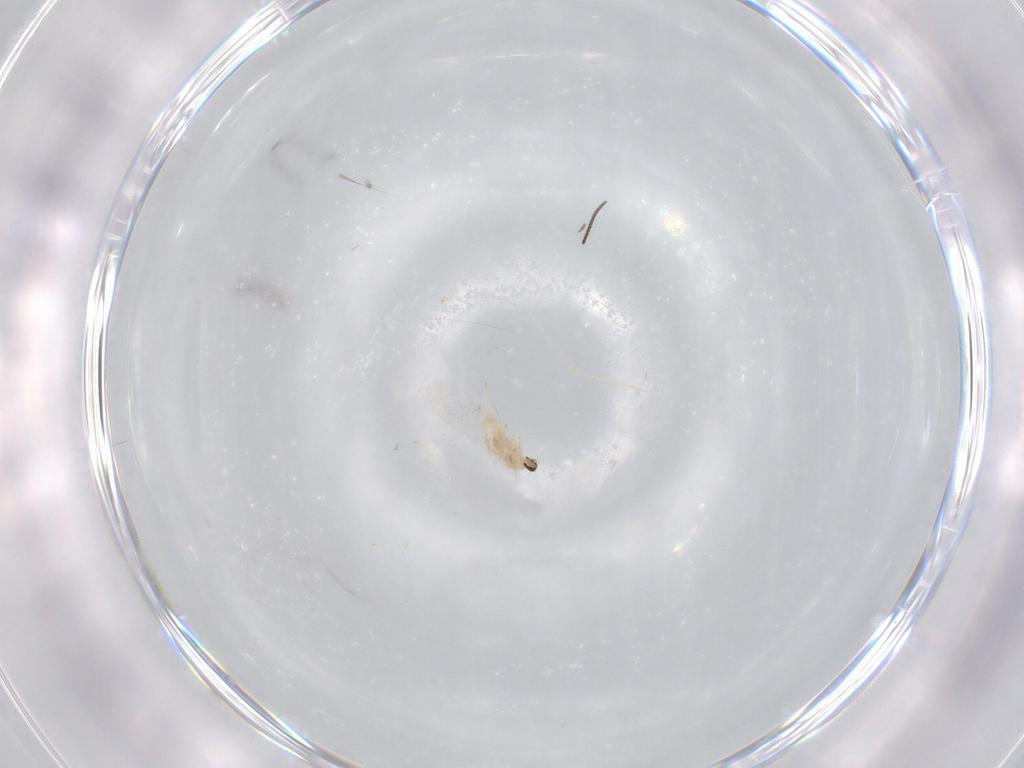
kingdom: Animalia
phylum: Arthropoda
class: Insecta
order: Diptera
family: Cecidomyiidae
